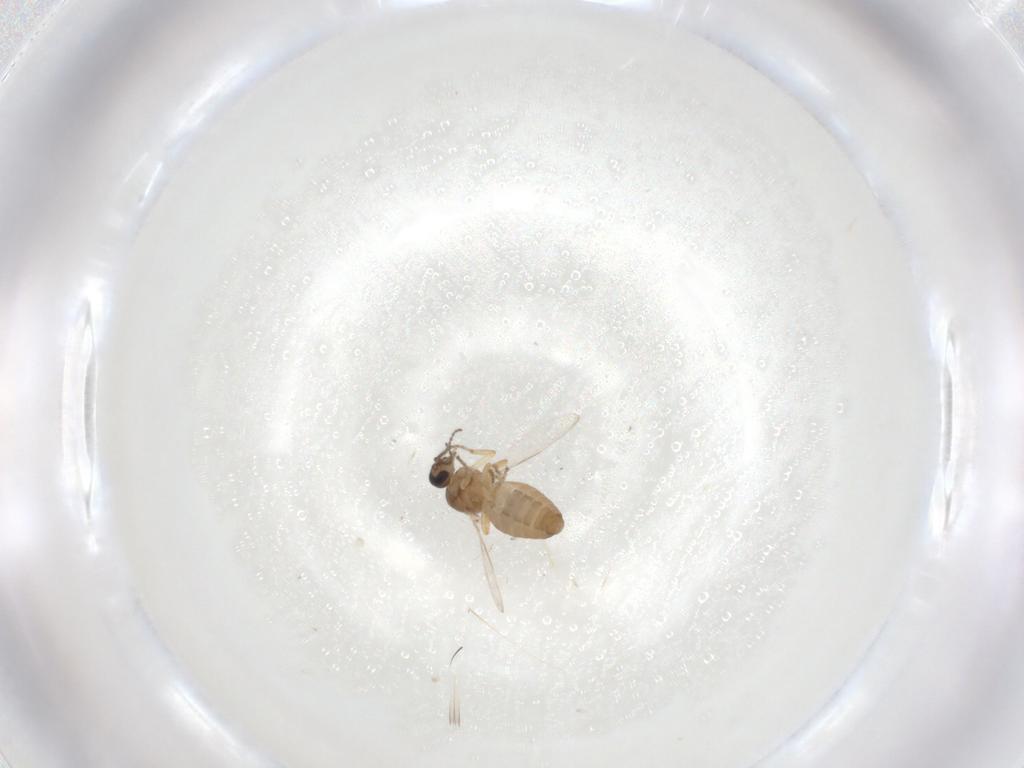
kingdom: Animalia
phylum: Arthropoda
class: Insecta
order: Diptera
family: Ceratopogonidae
